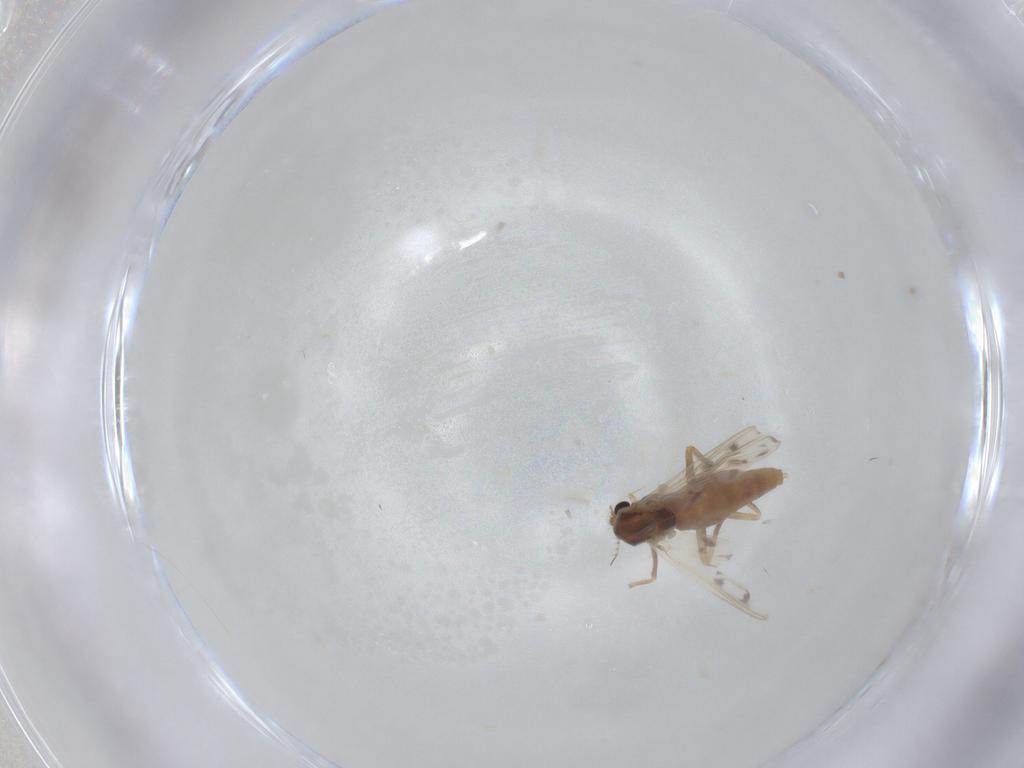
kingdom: Animalia
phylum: Arthropoda
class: Insecta
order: Diptera
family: Chironomidae
